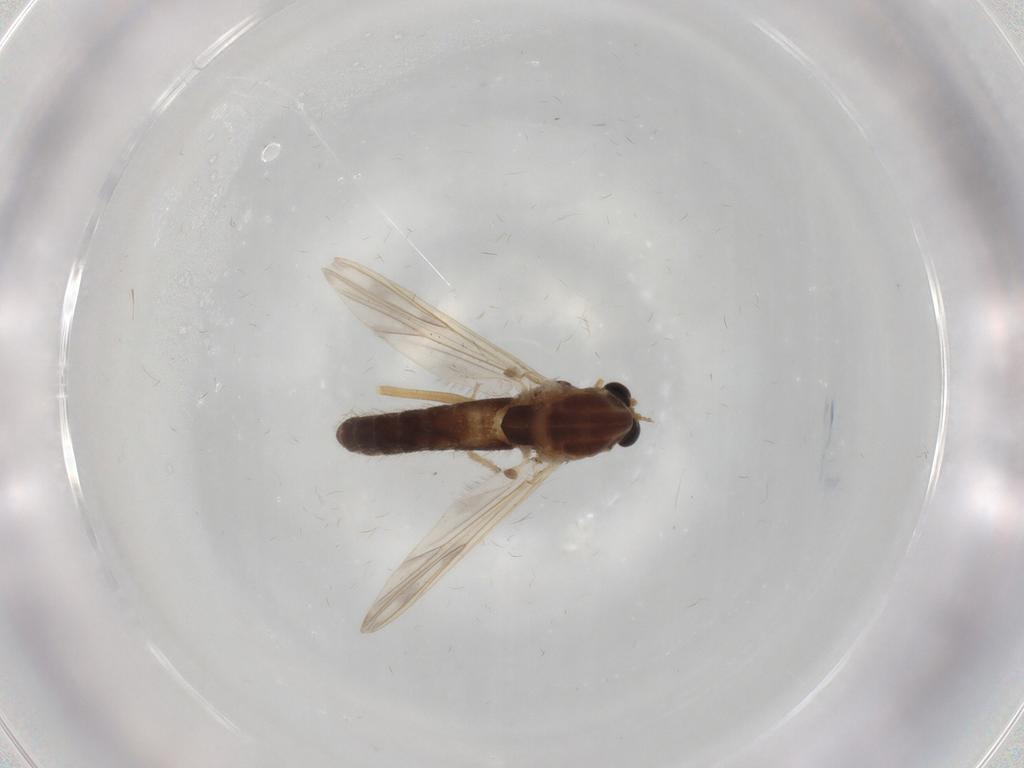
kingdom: Animalia
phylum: Arthropoda
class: Insecta
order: Diptera
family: Chironomidae
